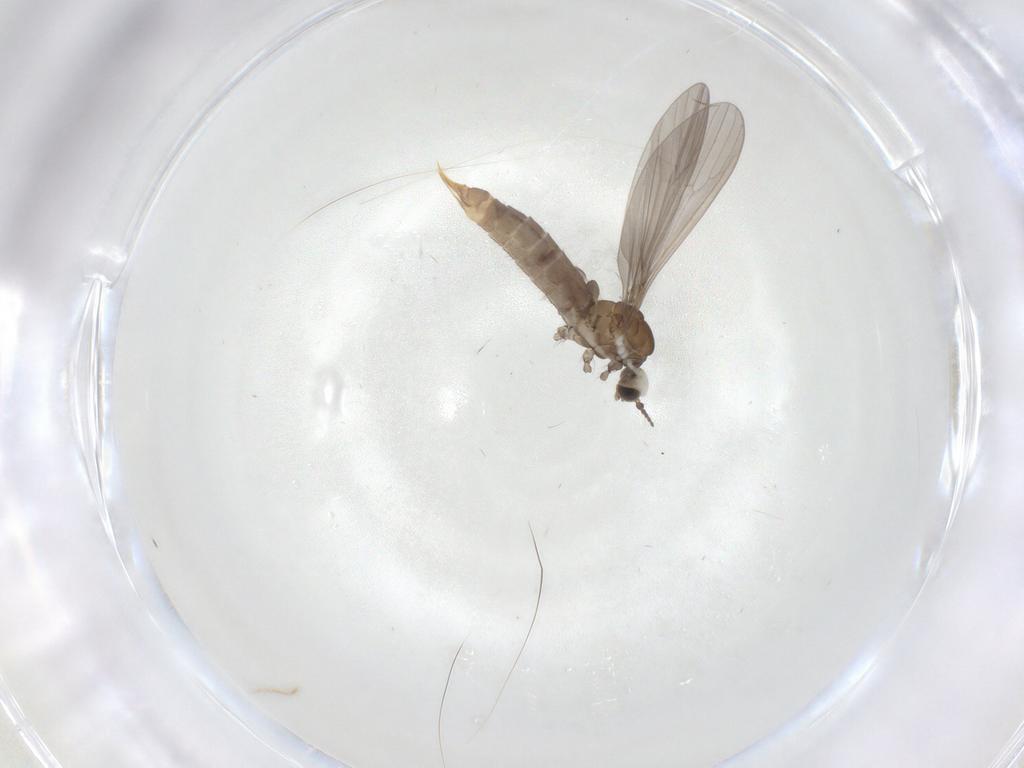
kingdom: Animalia
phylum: Arthropoda
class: Insecta
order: Diptera
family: Limoniidae
